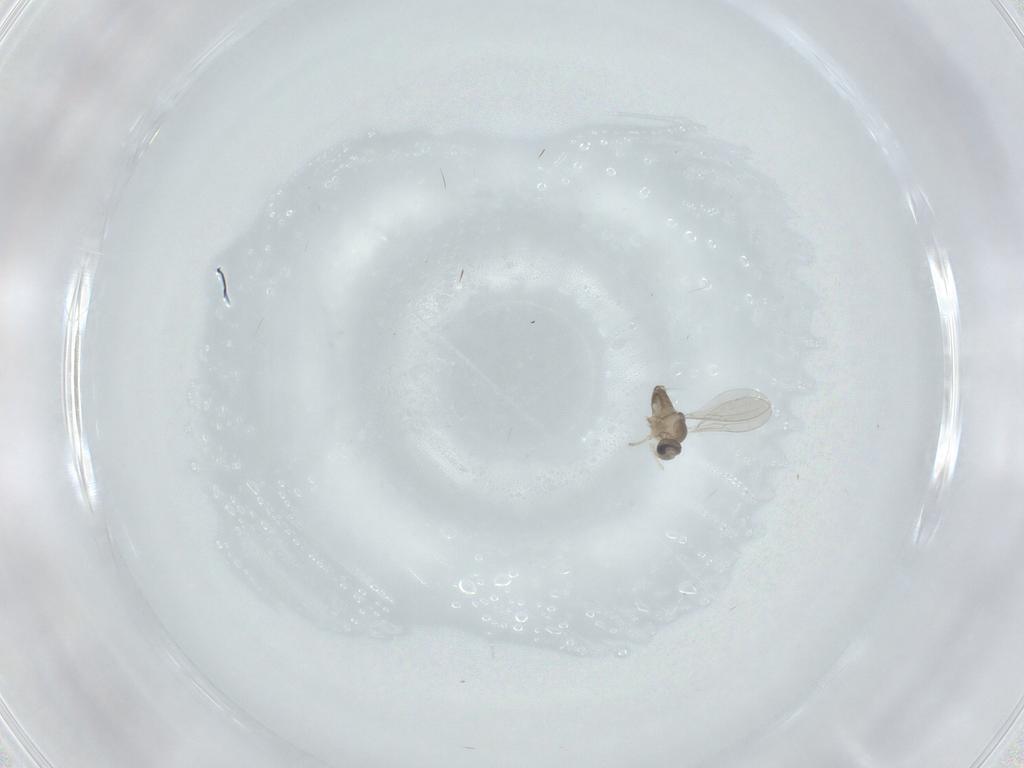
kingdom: Animalia
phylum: Arthropoda
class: Insecta
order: Diptera
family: Cecidomyiidae
